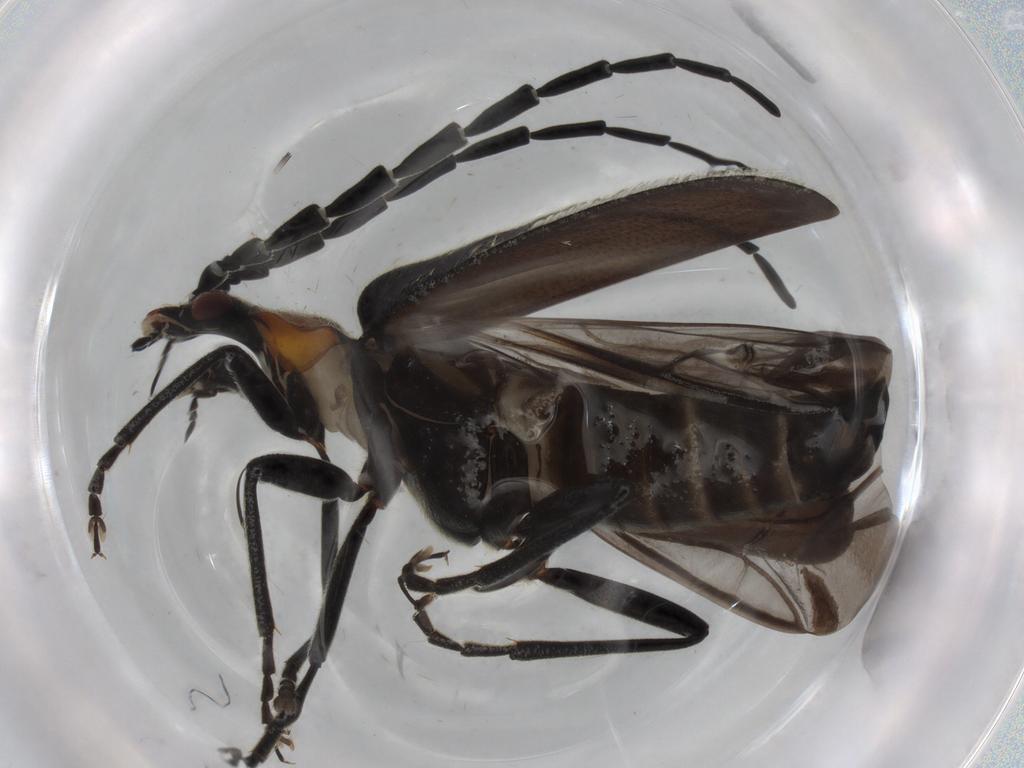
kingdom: Animalia
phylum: Arthropoda
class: Insecta
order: Coleoptera
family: Cantharidae
